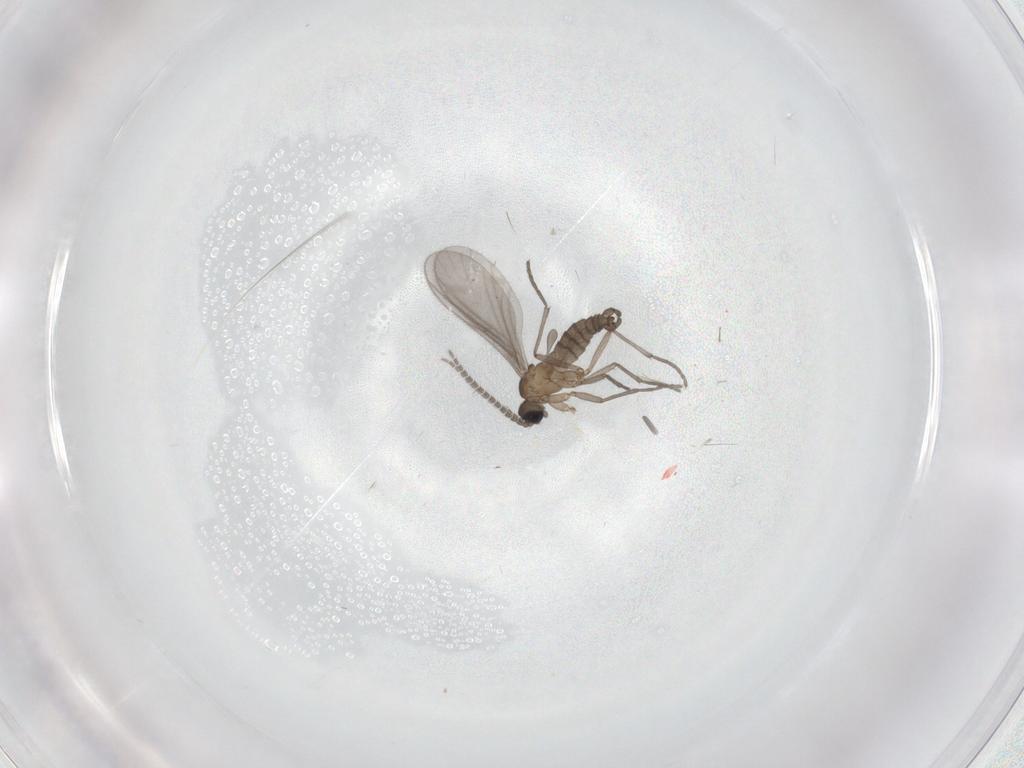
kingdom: Animalia
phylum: Arthropoda
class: Insecta
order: Diptera
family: Sciaridae
